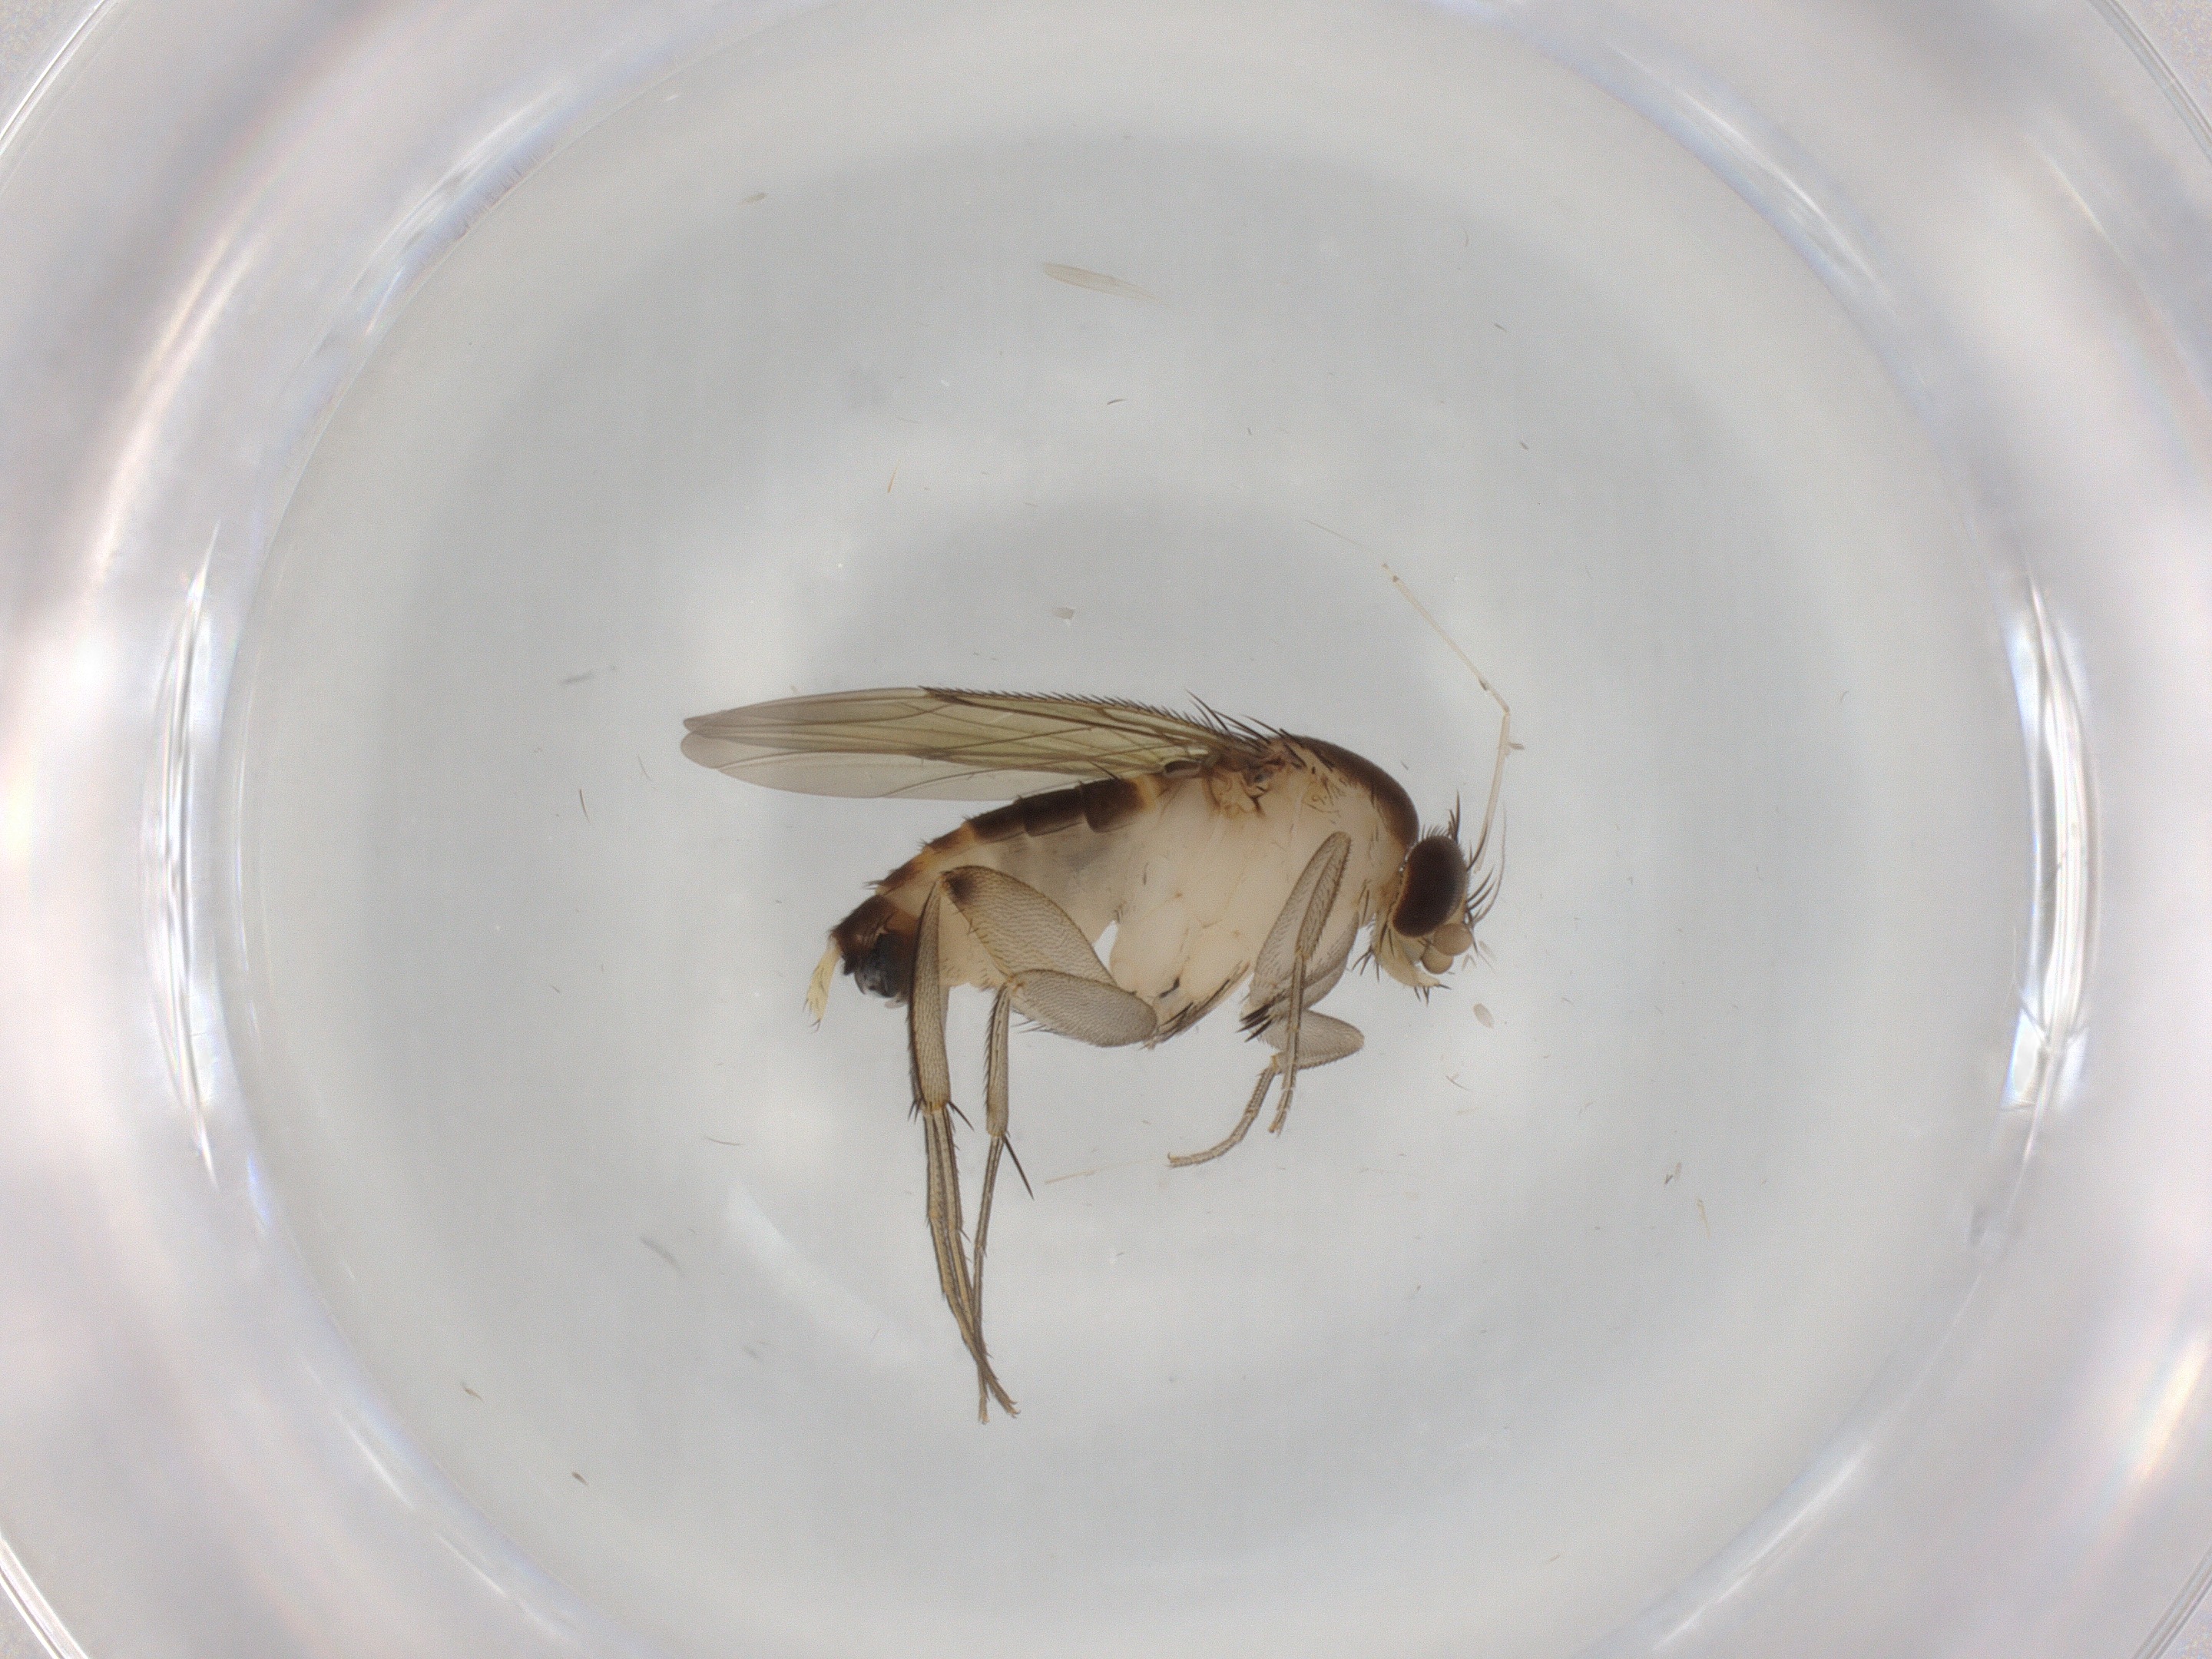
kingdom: Animalia
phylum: Arthropoda
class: Insecta
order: Diptera
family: Phoridae
